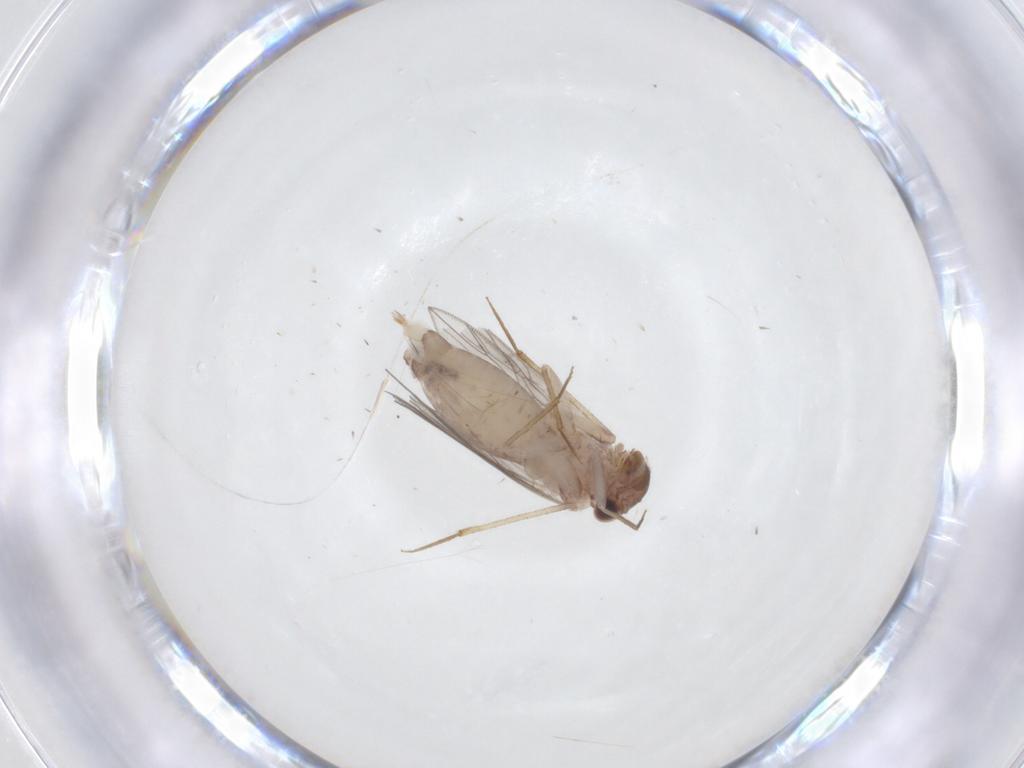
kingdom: Animalia
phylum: Arthropoda
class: Insecta
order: Psocodea
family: Lepidopsocidae
